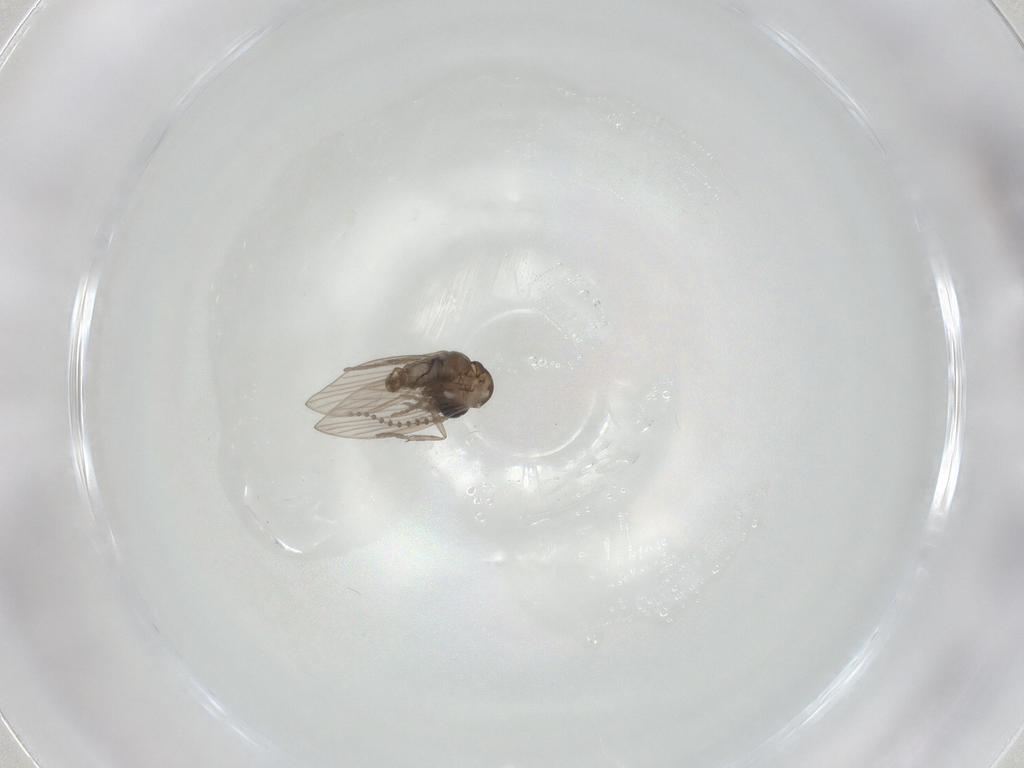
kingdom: Animalia
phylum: Arthropoda
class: Insecta
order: Diptera
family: Psychodidae
